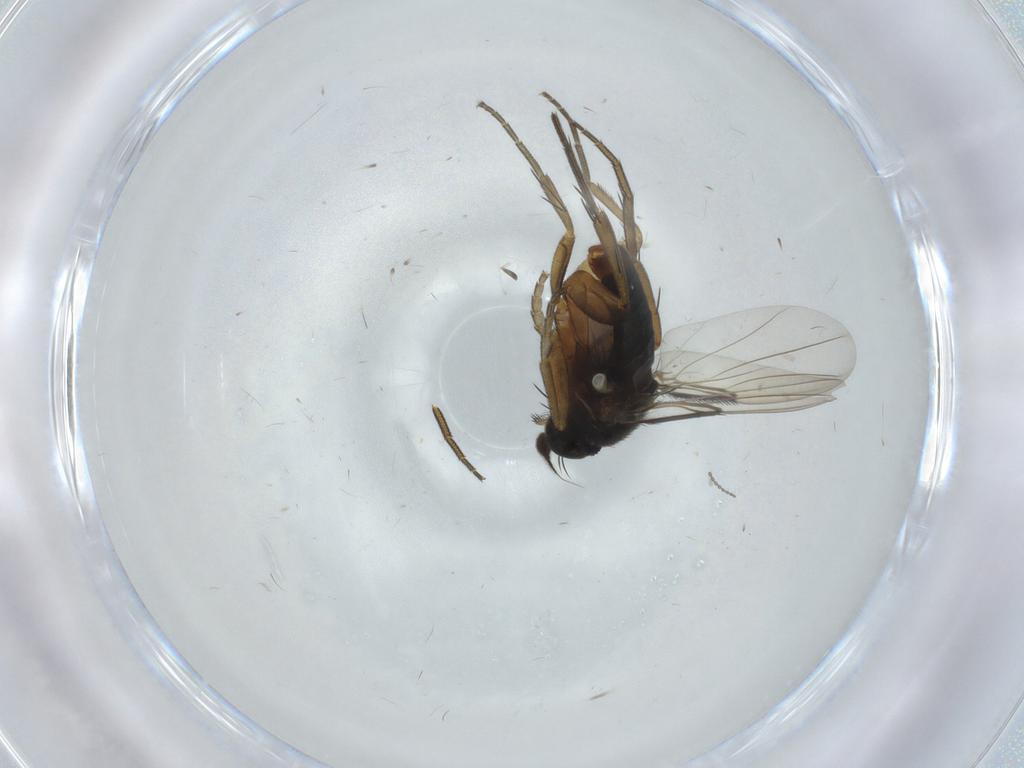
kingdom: Animalia
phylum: Arthropoda
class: Insecta
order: Diptera
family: Phoridae
